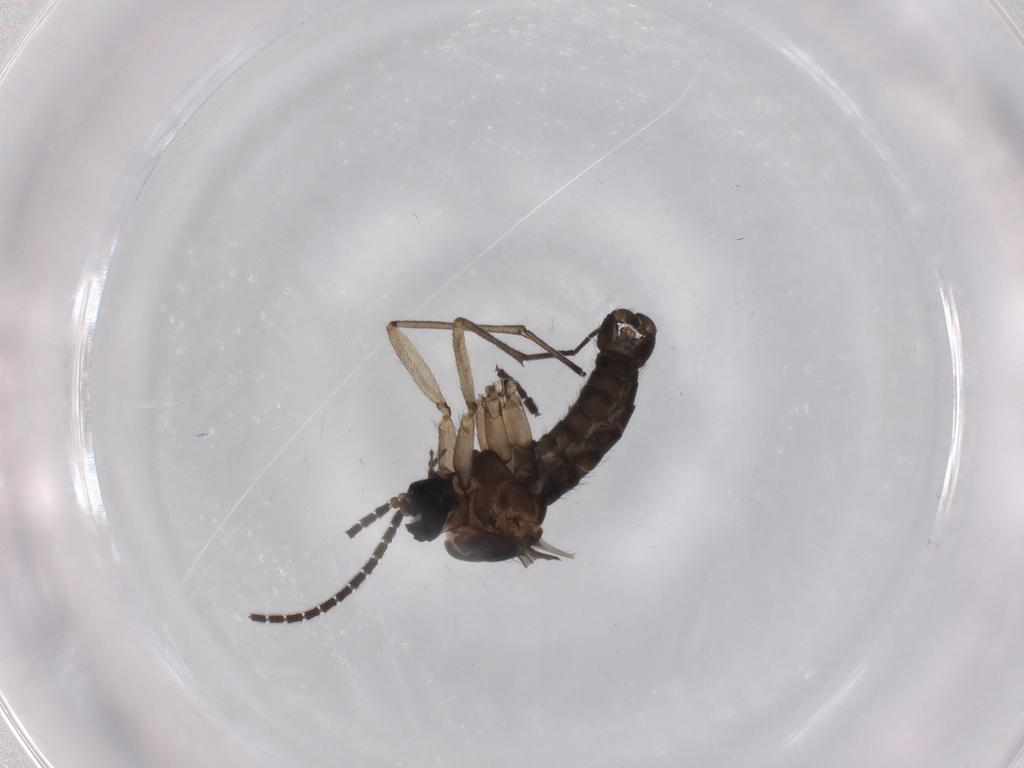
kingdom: Animalia
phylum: Arthropoda
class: Insecta
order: Diptera
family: Sciaridae
